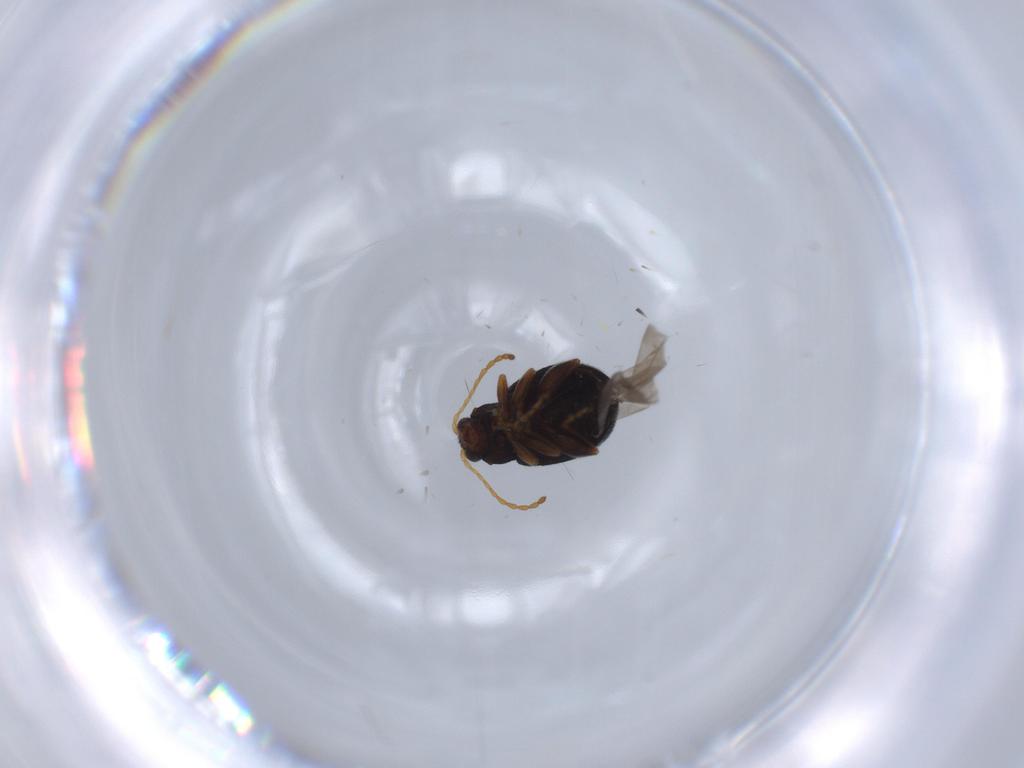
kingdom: Animalia
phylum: Arthropoda
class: Insecta
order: Coleoptera
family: Chrysomelidae
